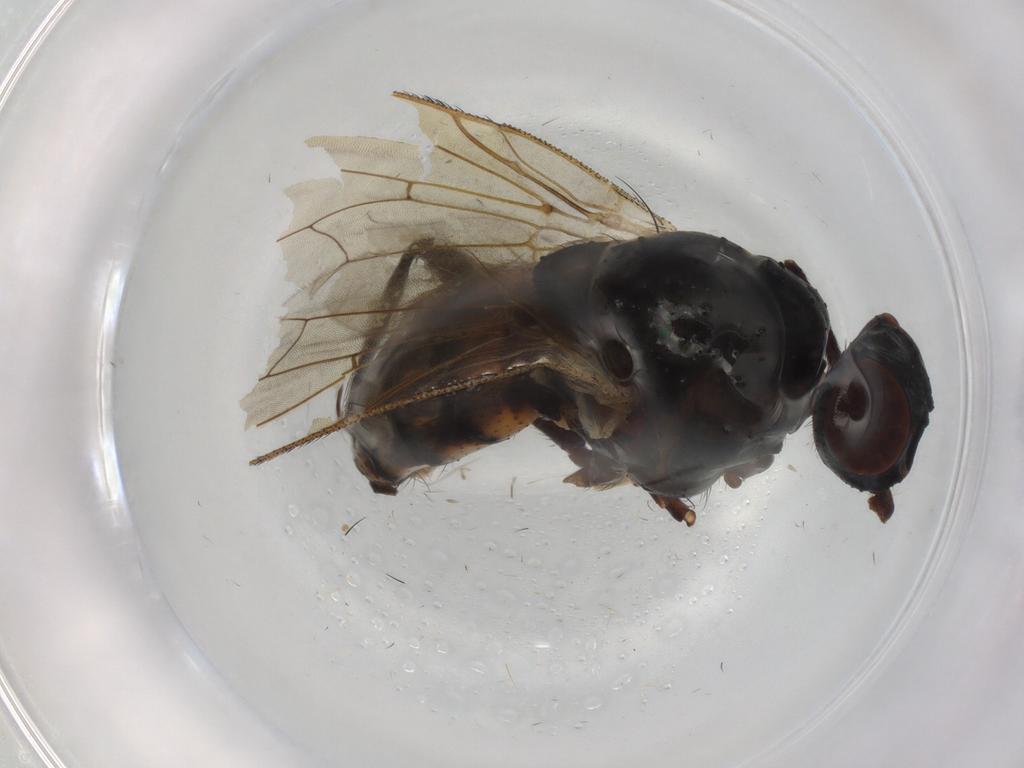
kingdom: Animalia
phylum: Arthropoda
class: Insecta
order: Diptera
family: Anthomyiidae
